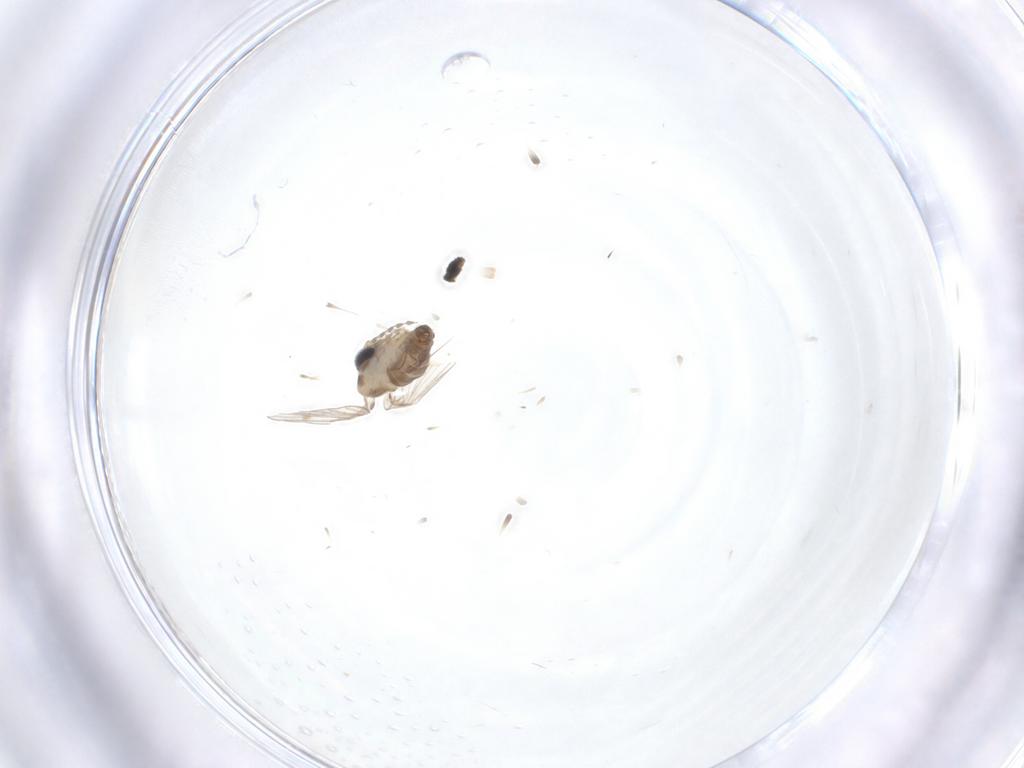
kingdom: Animalia
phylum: Arthropoda
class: Insecta
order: Diptera
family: Psychodidae
